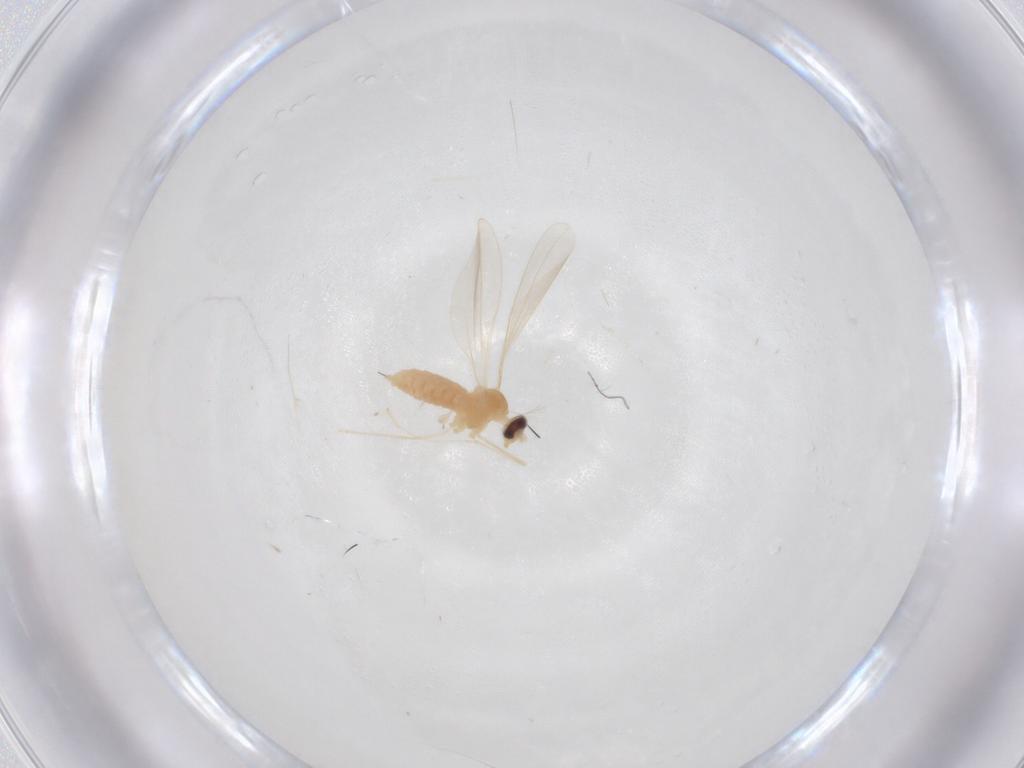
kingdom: Animalia
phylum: Arthropoda
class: Insecta
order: Diptera
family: Cecidomyiidae
